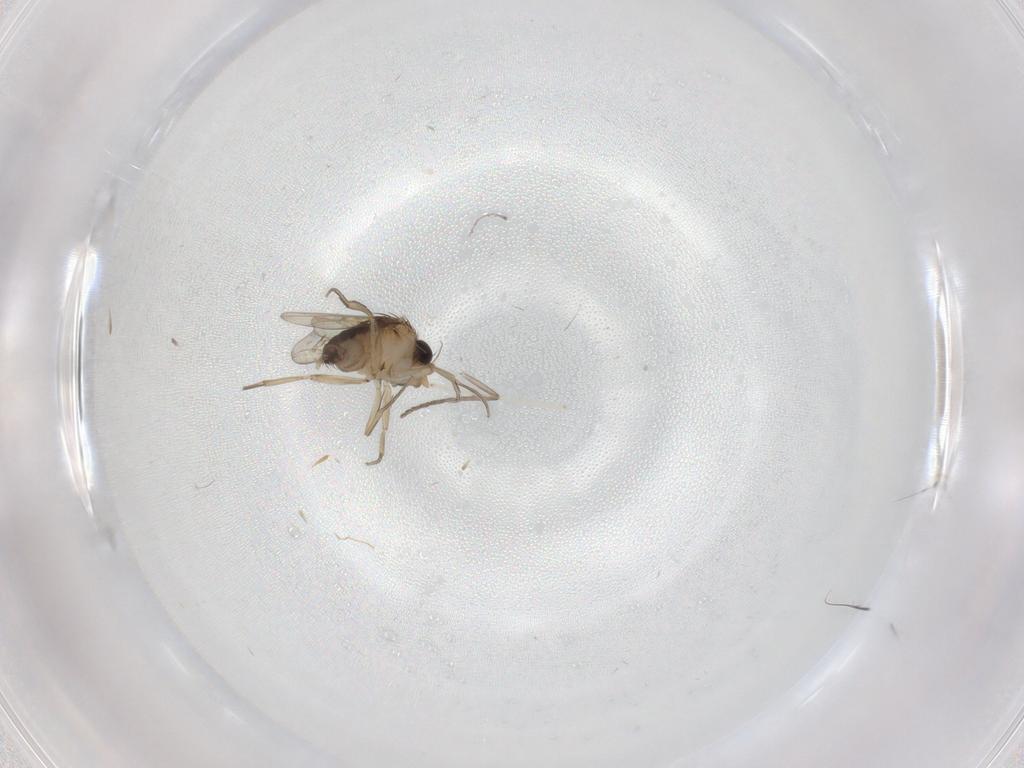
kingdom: Animalia
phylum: Arthropoda
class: Insecta
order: Diptera
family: Phoridae
